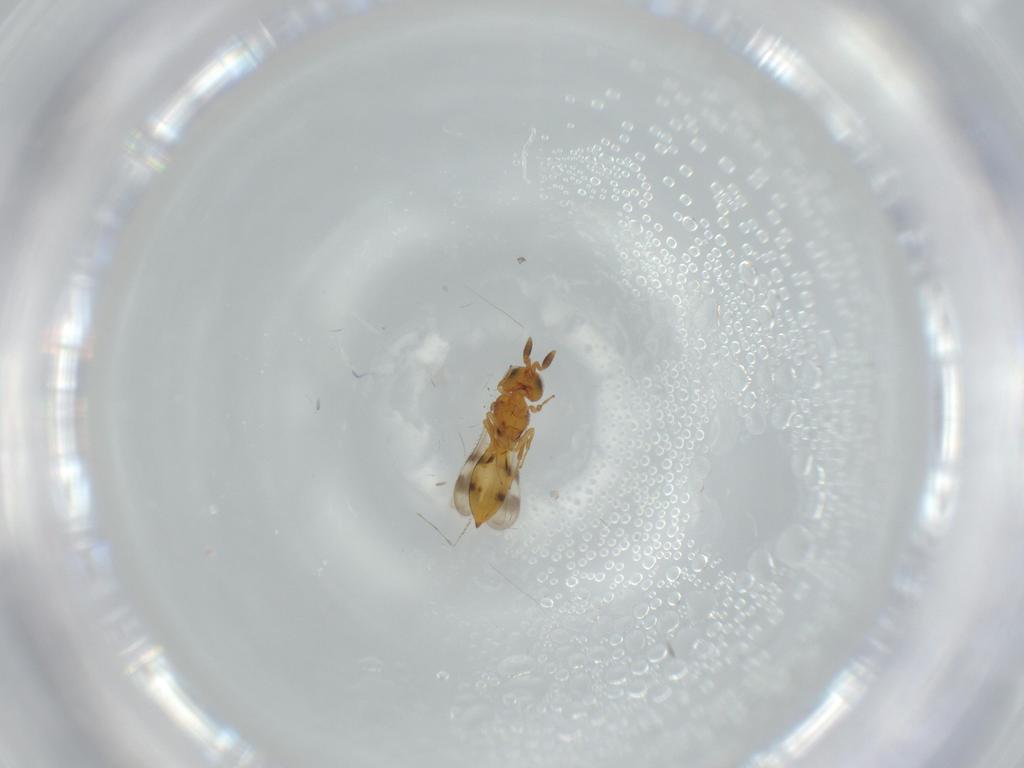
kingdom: Animalia
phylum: Arthropoda
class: Insecta
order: Hymenoptera
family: Scelionidae
